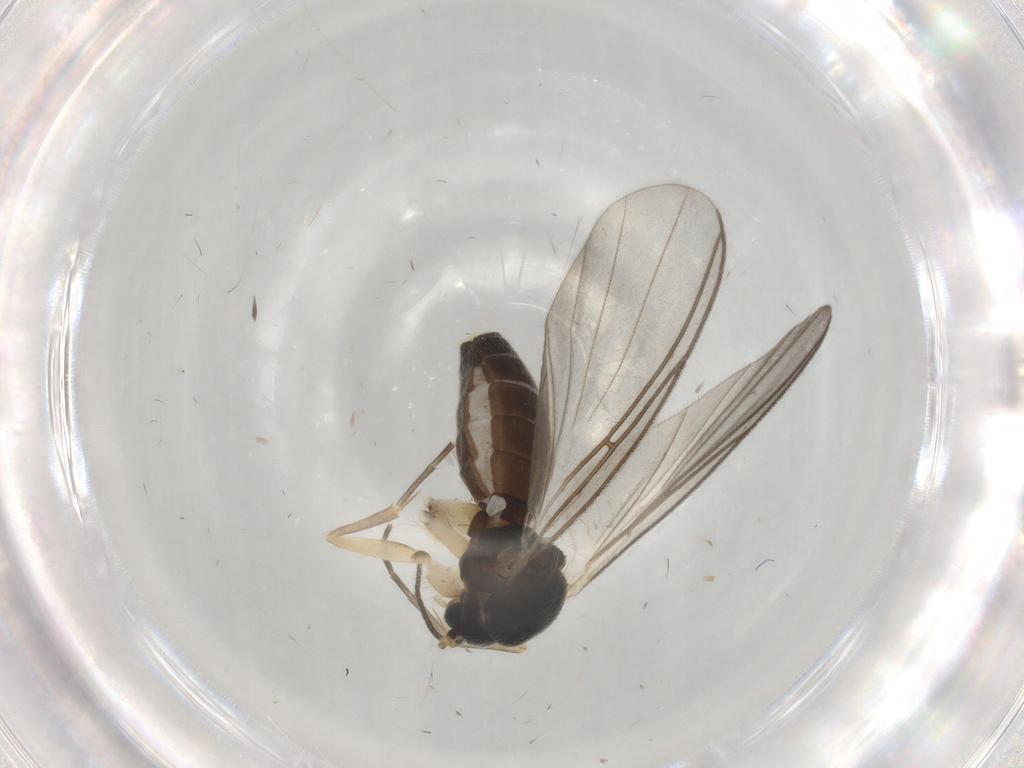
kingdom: Animalia
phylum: Arthropoda
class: Insecta
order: Diptera
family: Mycetophilidae
